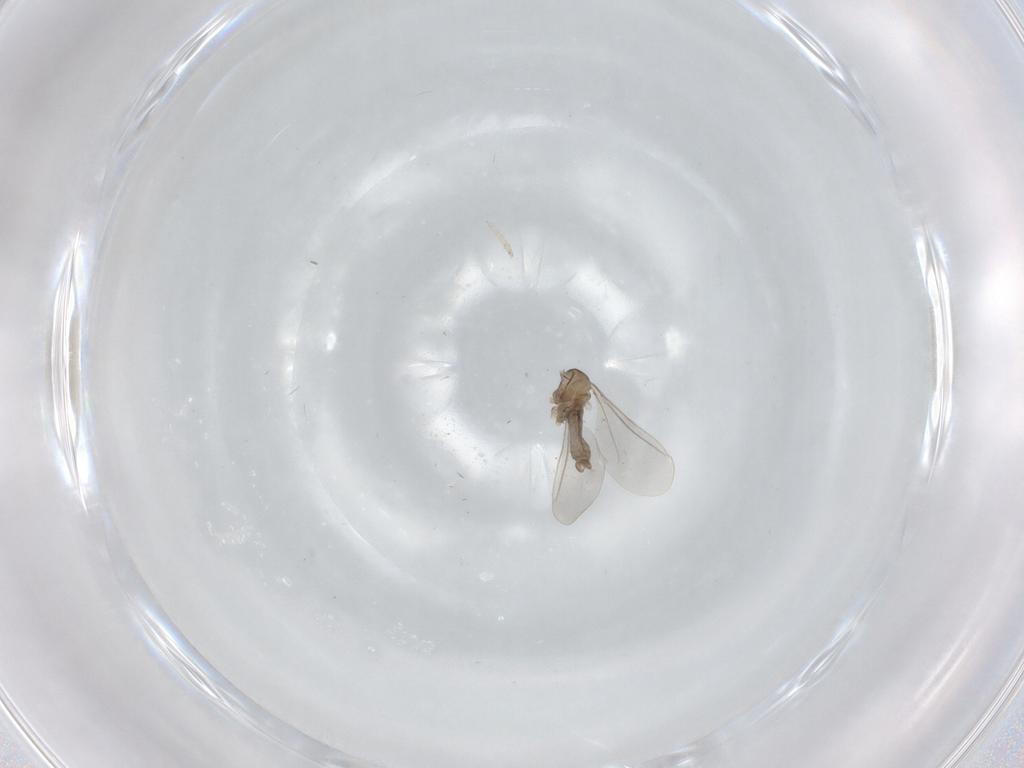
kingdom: Animalia
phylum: Arthropoda
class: Insecta
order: Diptera
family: Cecidomyiidae
